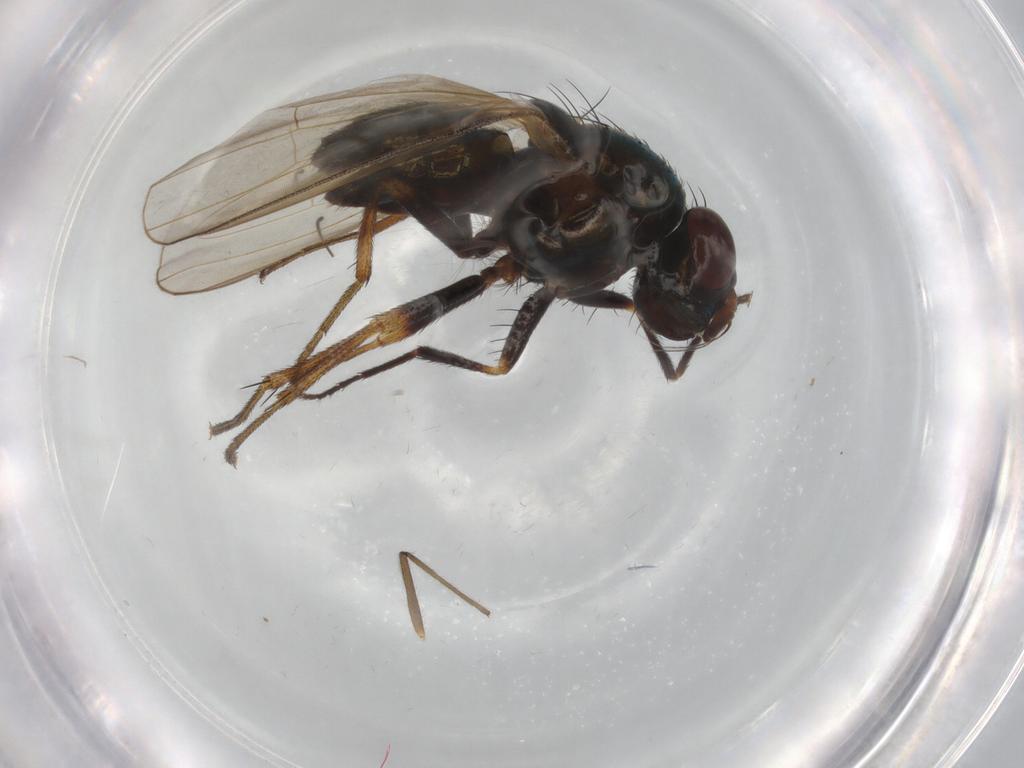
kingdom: Animalia
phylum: Arthropoda
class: Insecta
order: Diptera
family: Lauxaniidae
